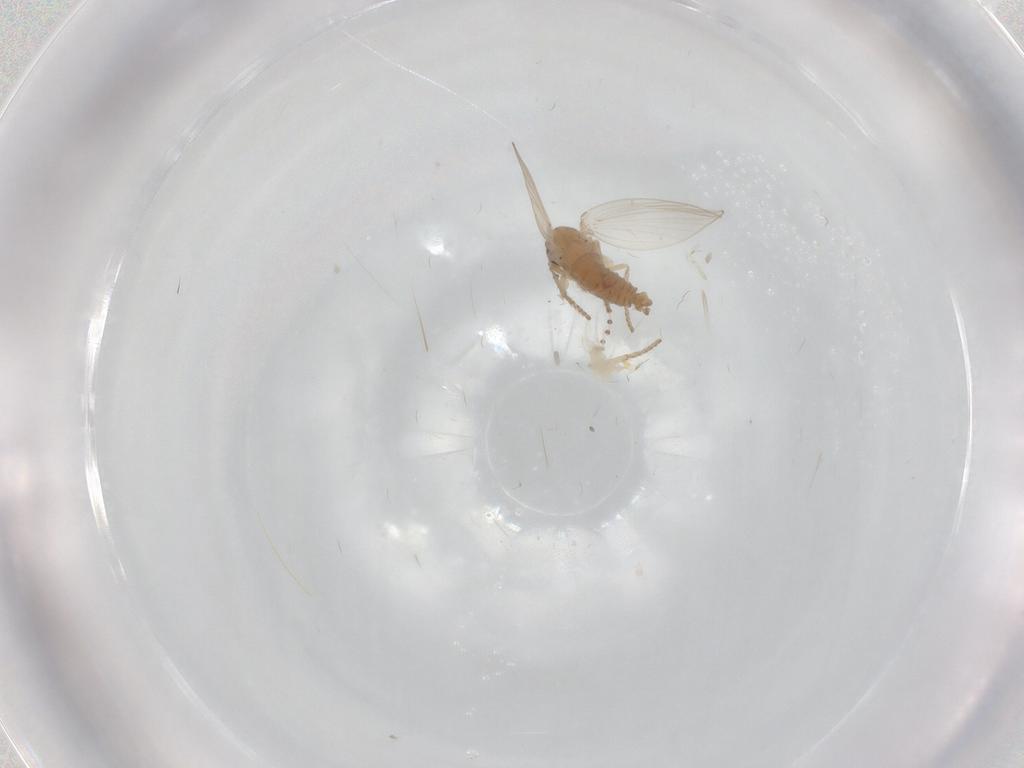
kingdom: Animalia
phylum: Arthropoda
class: Insecta
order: Diptera
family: Psychodidae
